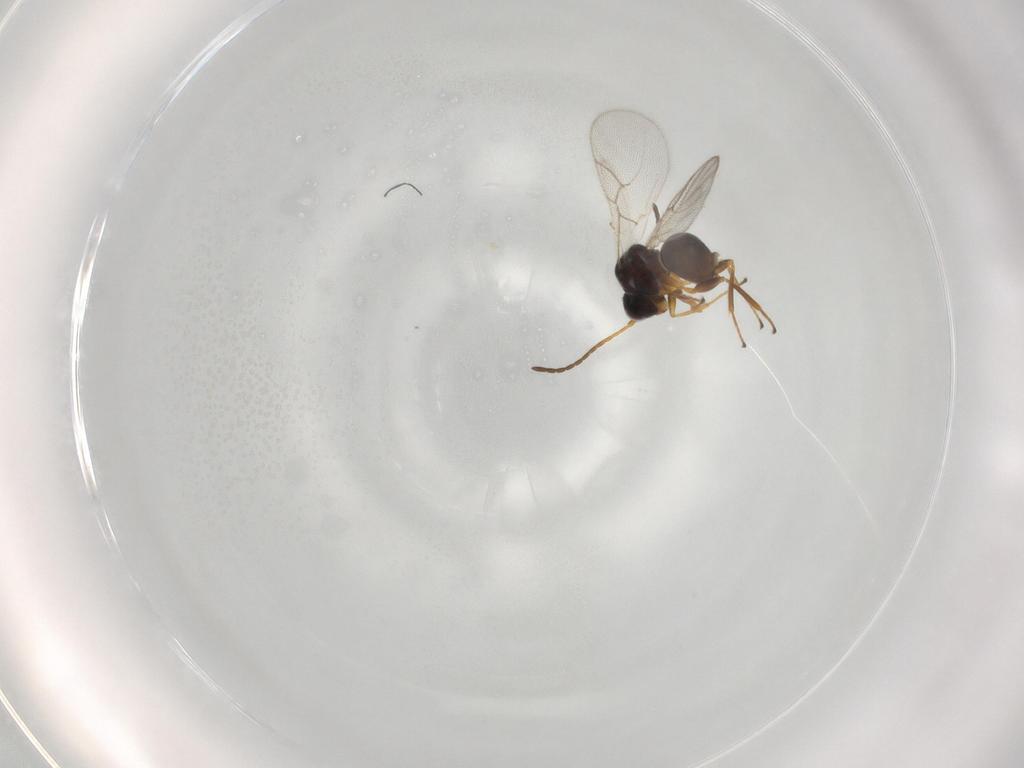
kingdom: Animalia
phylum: Arthropoda
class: Insecta
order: Hymenoptera
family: Figitidae
